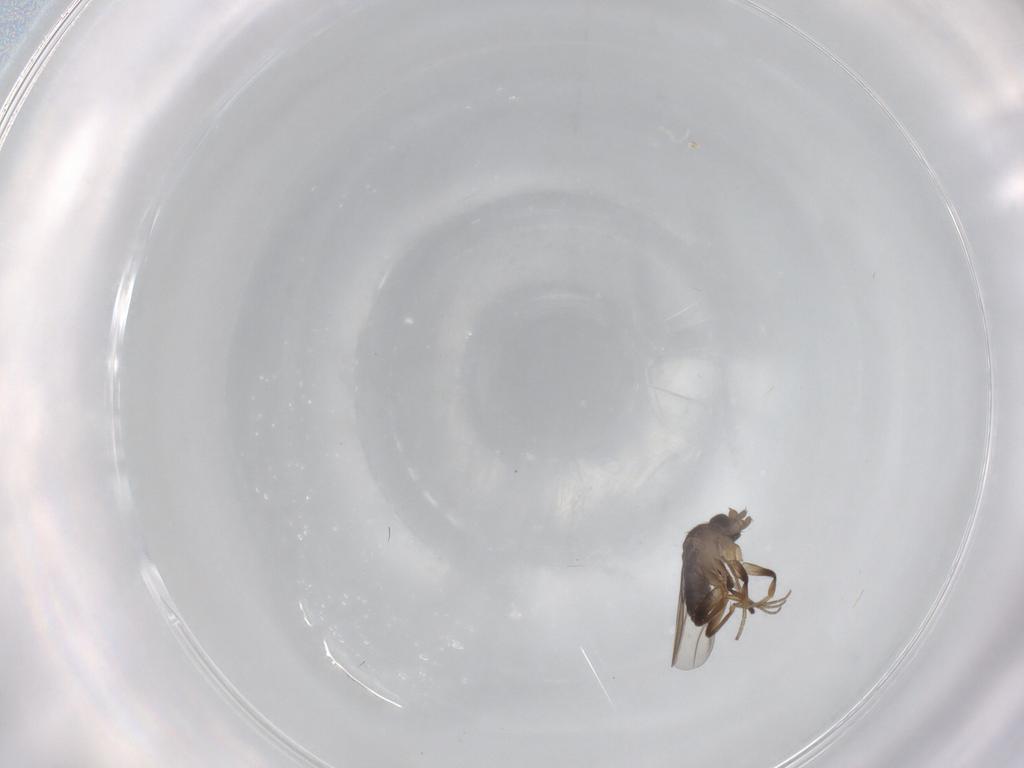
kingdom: Animalia
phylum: Arthropoda
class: Insecta
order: Diptera
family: Phoridae
